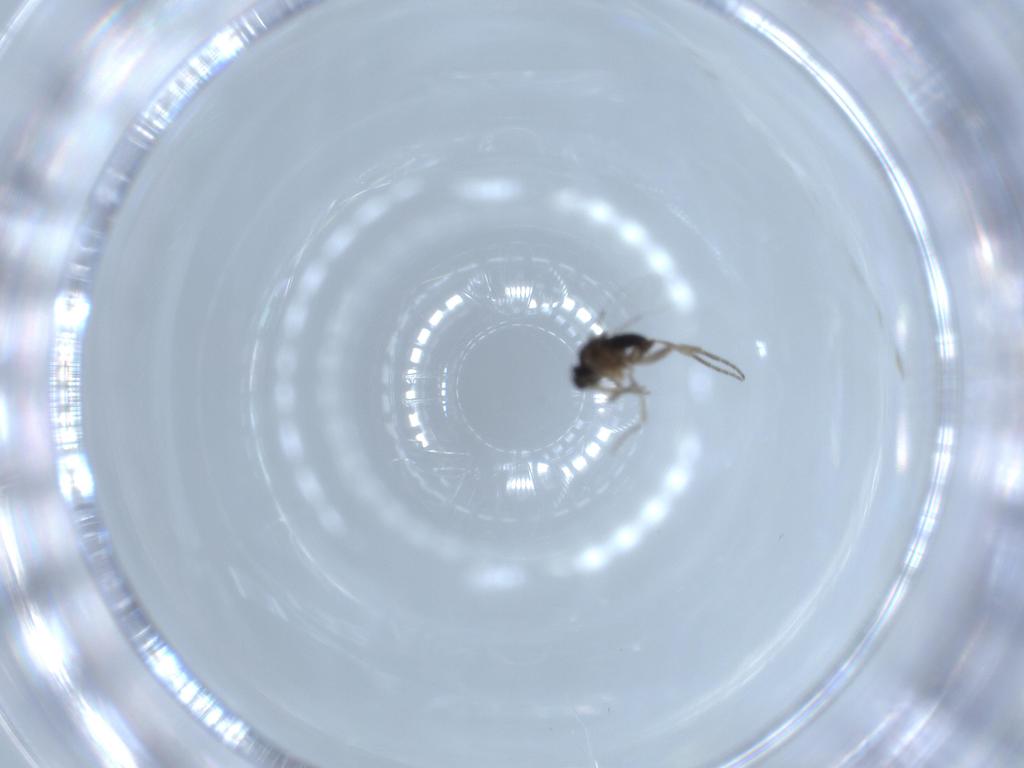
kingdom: Animalia
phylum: Arthropoda
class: Insecta
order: Diptera
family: Phoridae
